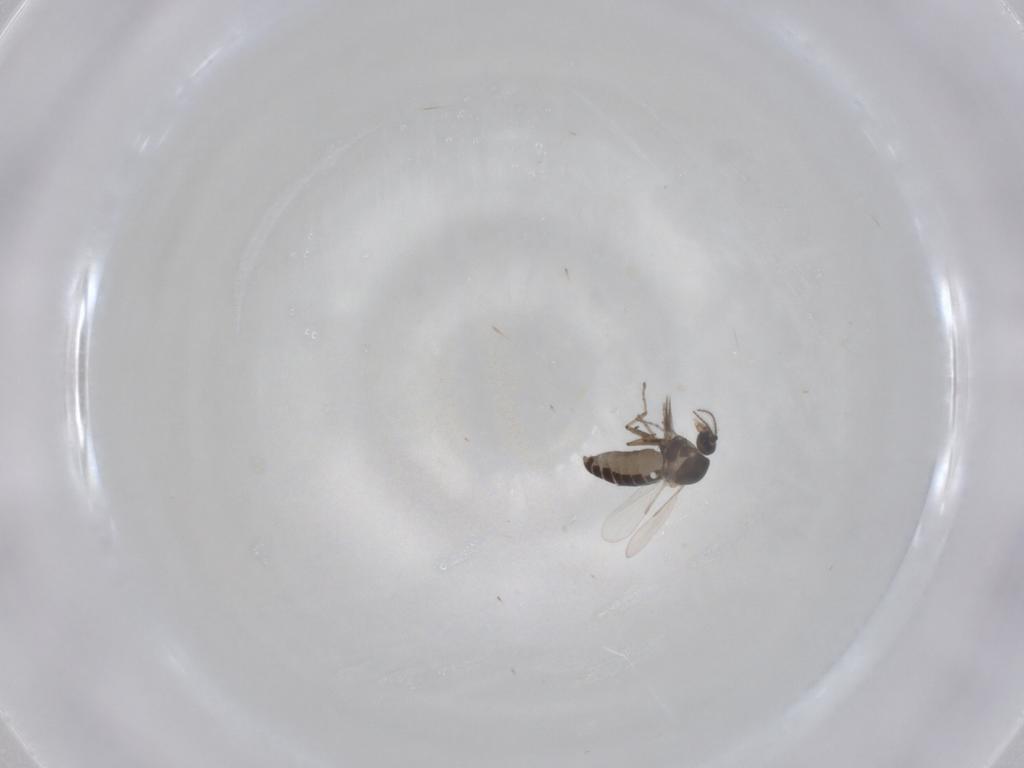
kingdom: Animalia
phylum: Arthropoda
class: Insecta
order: Diptera
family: Ceratopogonidae
